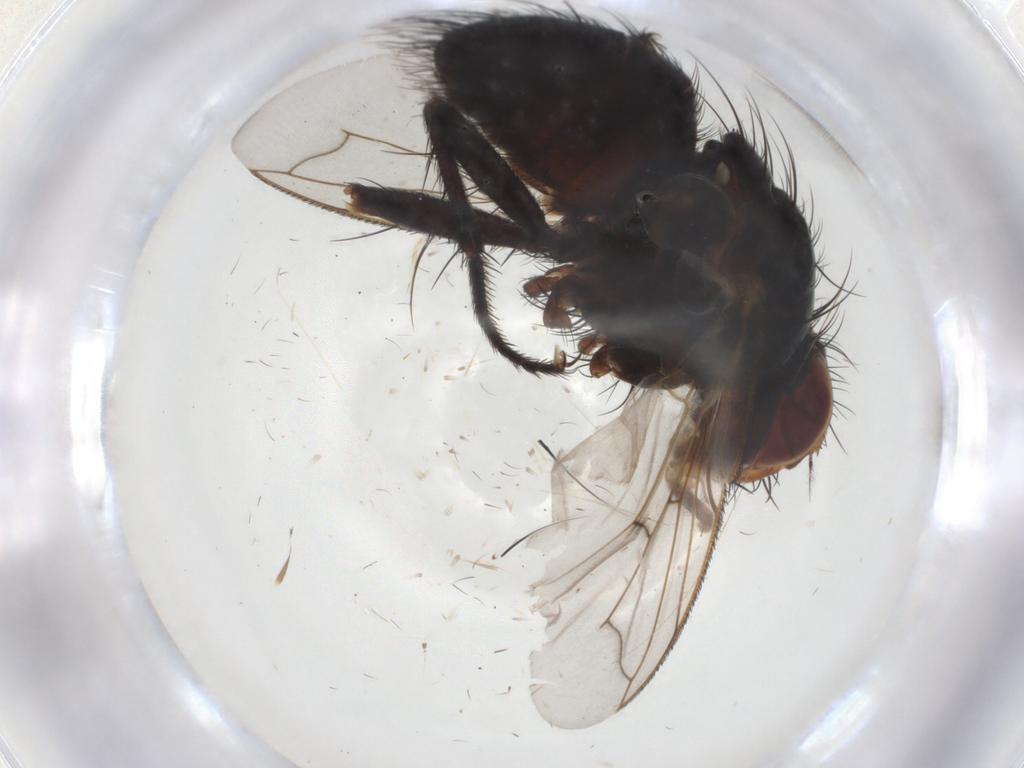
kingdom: Animalia
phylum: Arthropoda
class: Insecta
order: Diptera
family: Tachinidae
